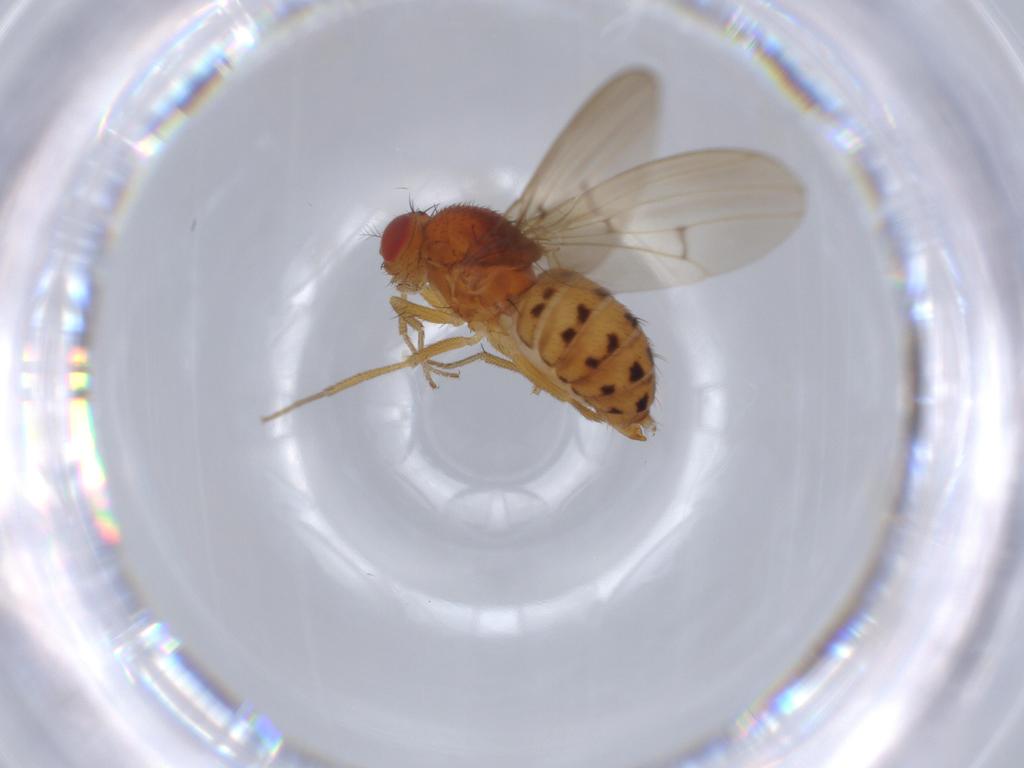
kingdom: Animalia
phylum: Arthropoda
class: Insecta
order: Diptera
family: Drosophilidae
